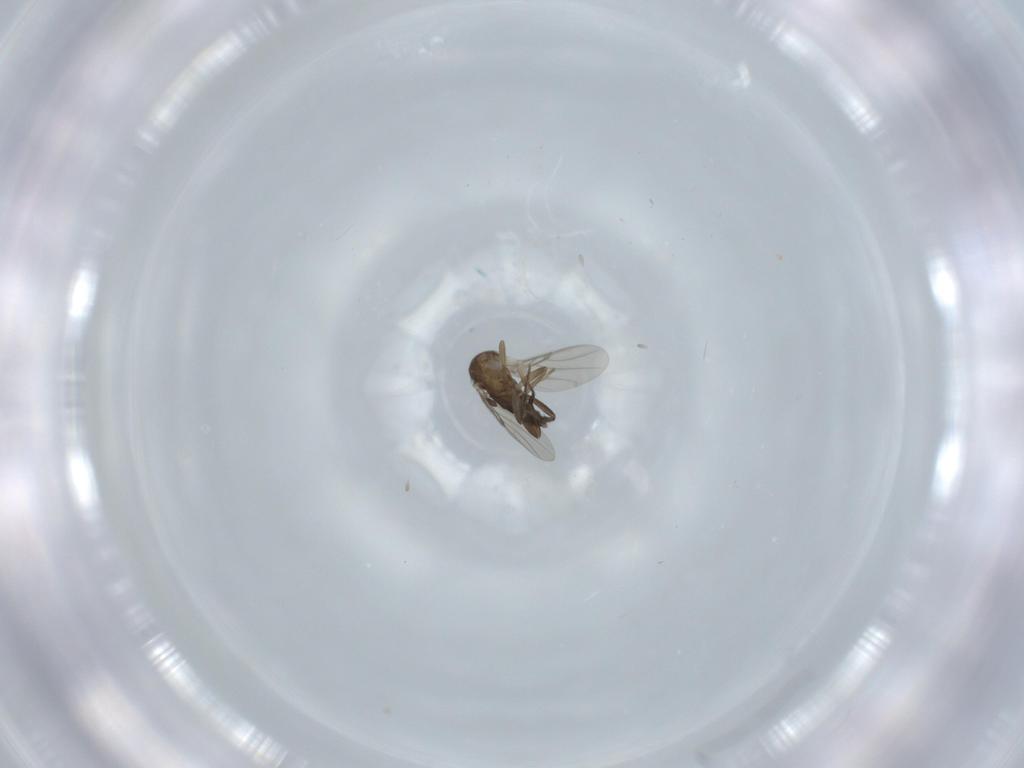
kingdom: Animalia
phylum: Arthropoda
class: Insecta
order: Diptera
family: Phoridae
